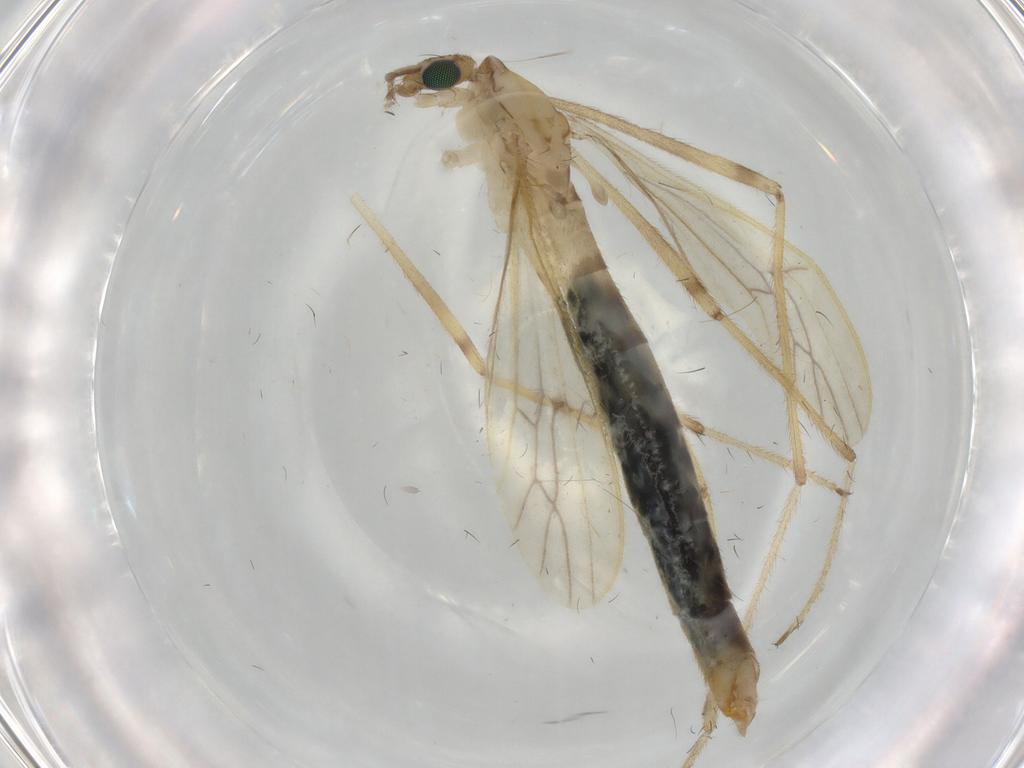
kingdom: Animalia
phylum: Arthropoda
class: Insecta
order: Diptera
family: Limoniidae
